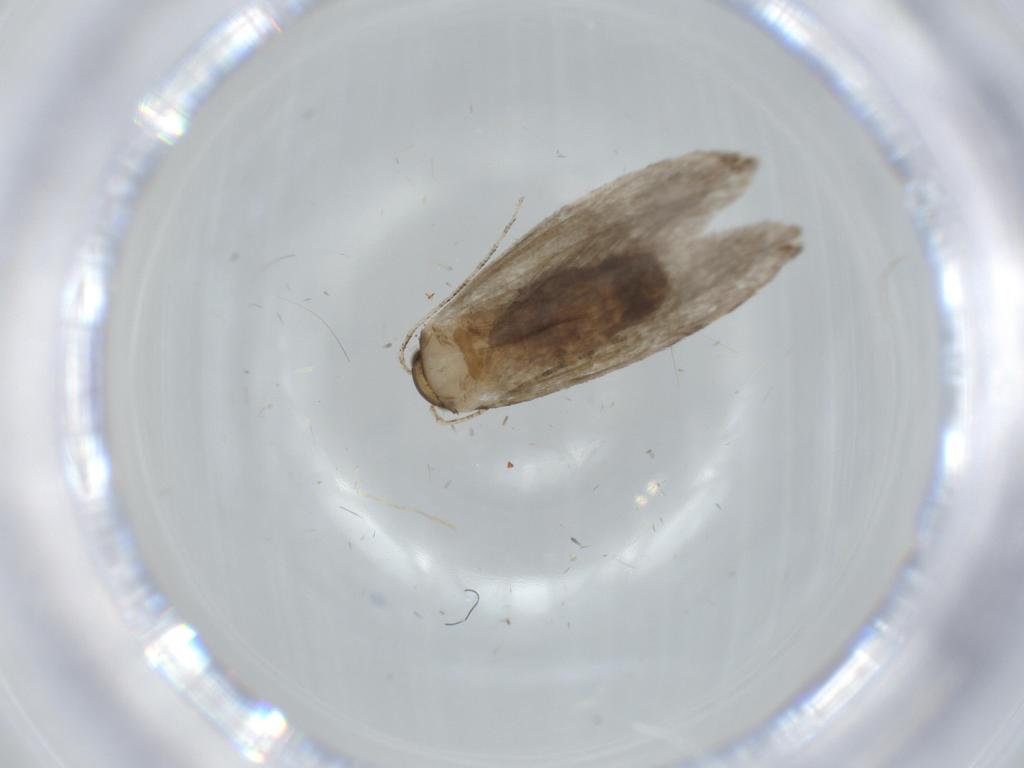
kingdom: Animalia
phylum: Arthropoda
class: Insecta
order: Lepidoptera
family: Tineidae
